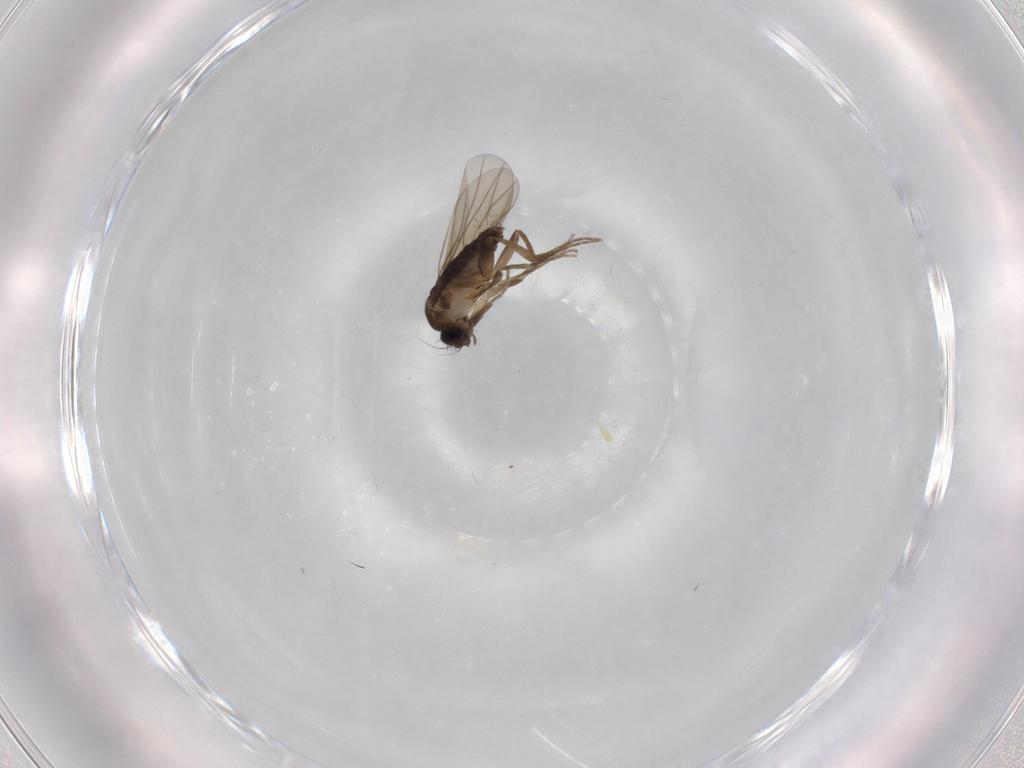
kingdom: Animalia
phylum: Arthropoda
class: Insecta
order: Diptera
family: Phoridae
